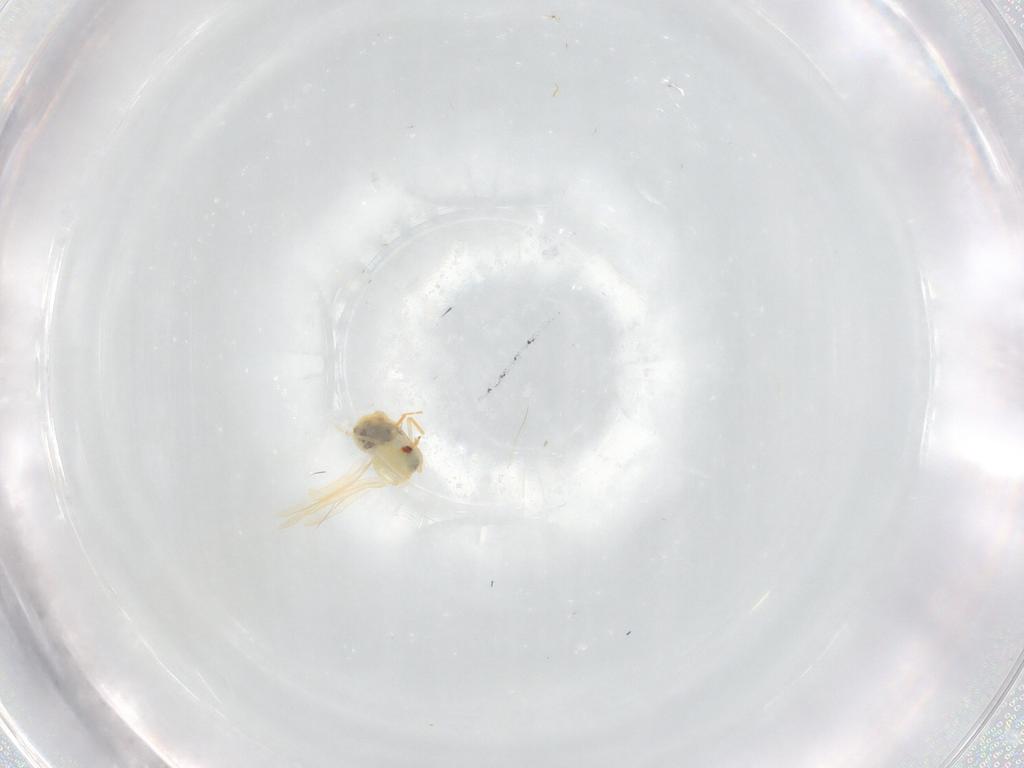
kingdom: Animalia
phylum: Arthropoda
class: Insecta
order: Hemiptera
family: Aleyrodidae
